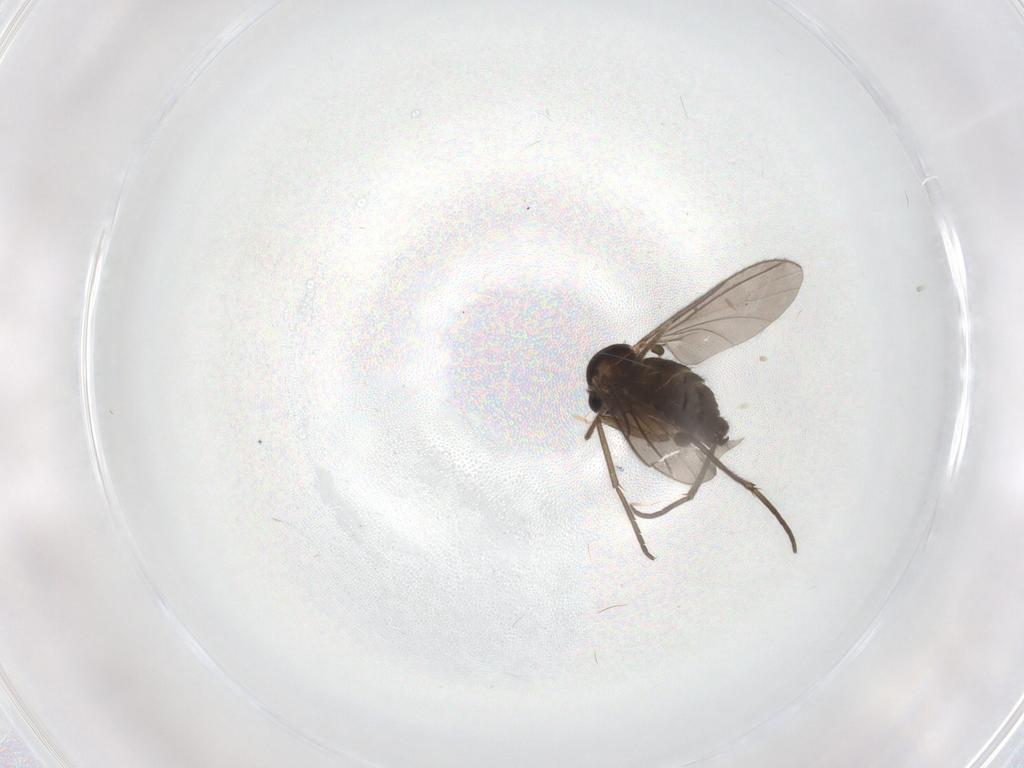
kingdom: Animalia
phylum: Arthropoda
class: Insecta
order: Diptera
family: Sciaridae
